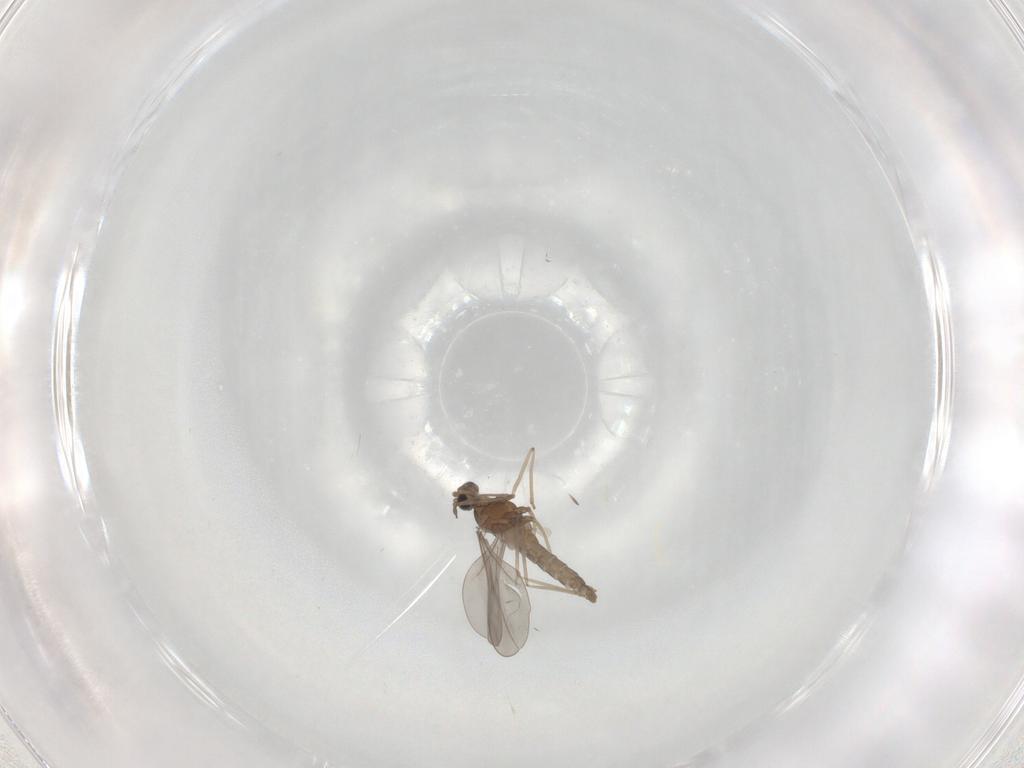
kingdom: Animalia
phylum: Arthropoda
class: Insecta
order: Diptera
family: Cecidomyiidae
